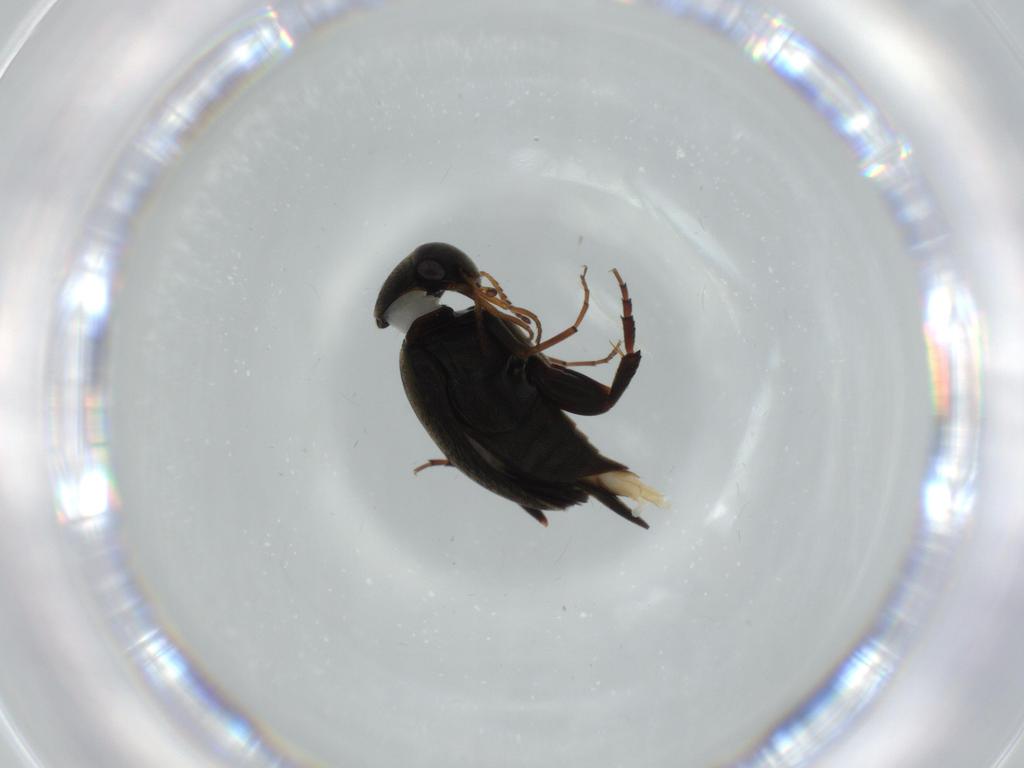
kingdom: Animalia
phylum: Arthropoda
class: Insecta
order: Coleoptera
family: Mordellidae
